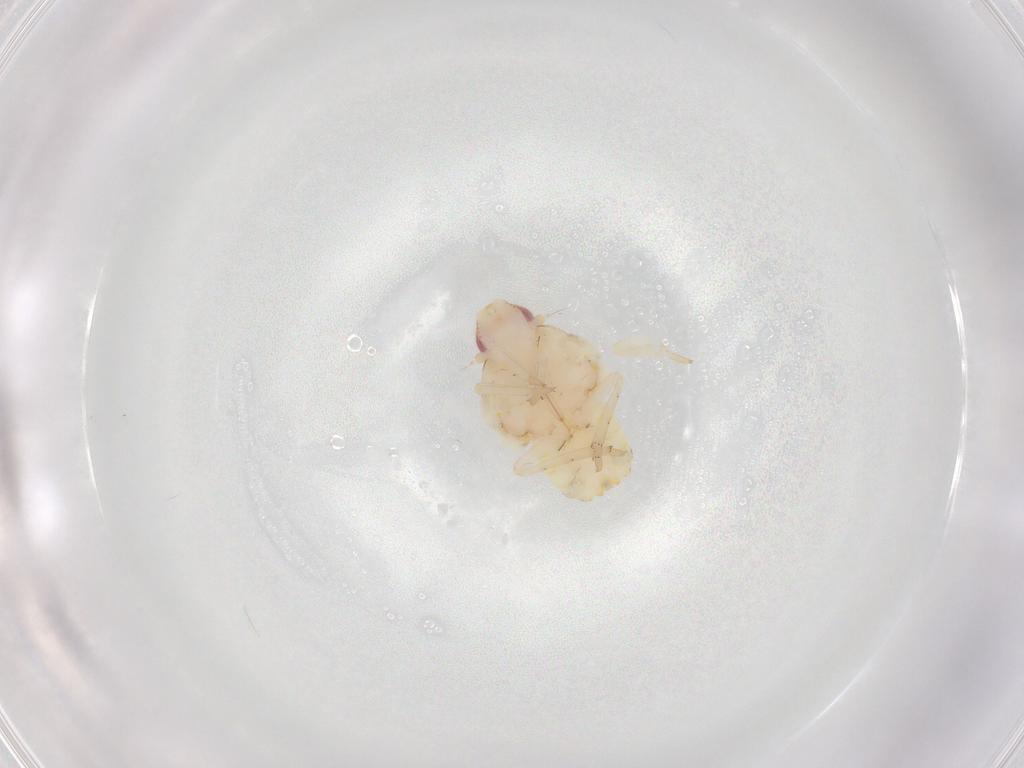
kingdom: Animalia
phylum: Arthropoda
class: Insecta
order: Hemiptera
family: Flatidae
